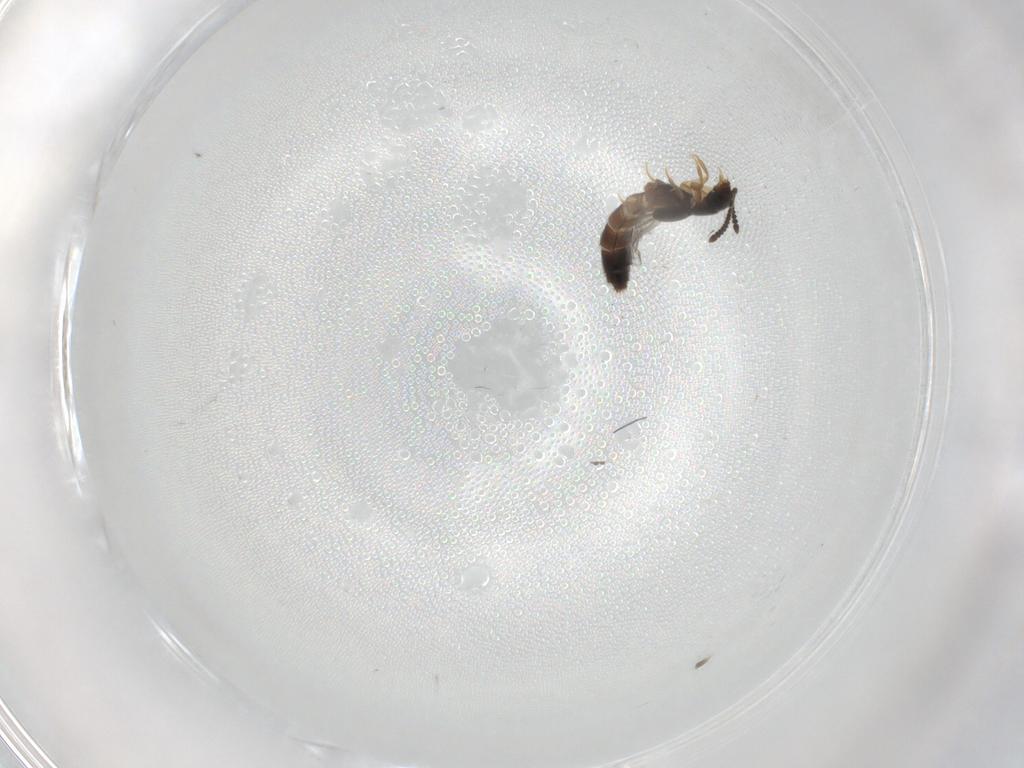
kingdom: Animalia
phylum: Arthropoda
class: Insecta
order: Coleoptera
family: Staphylinidae
